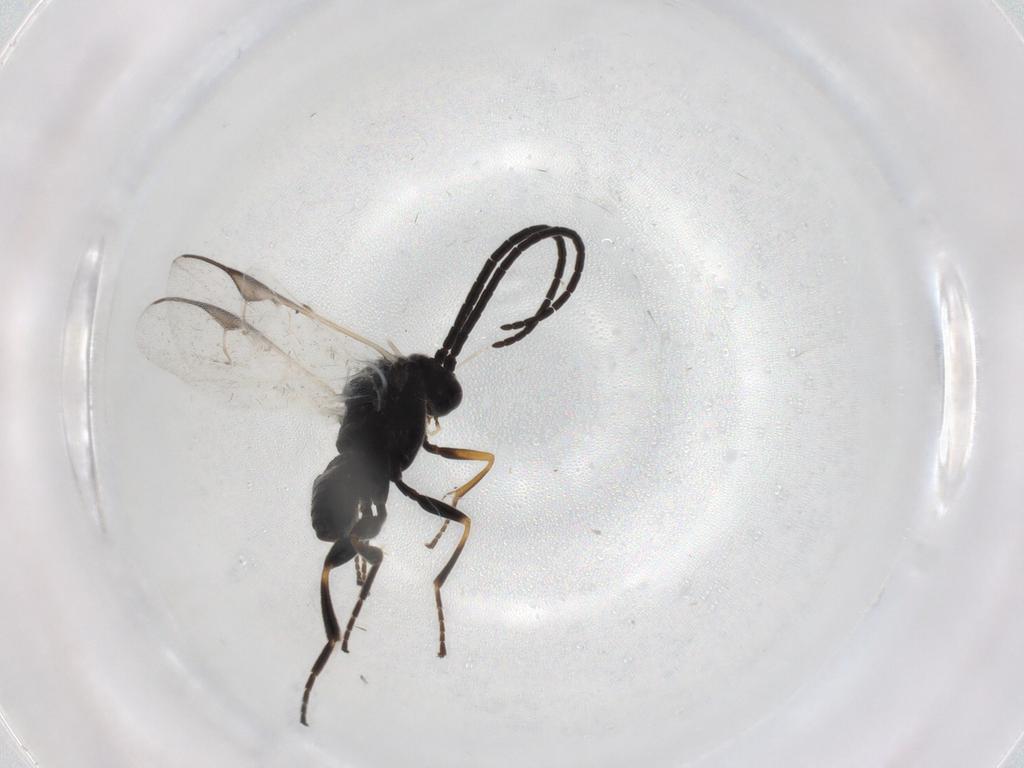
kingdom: Animalia
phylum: Arthropoda
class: Insecta
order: Hymenoptera
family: Braconidae
